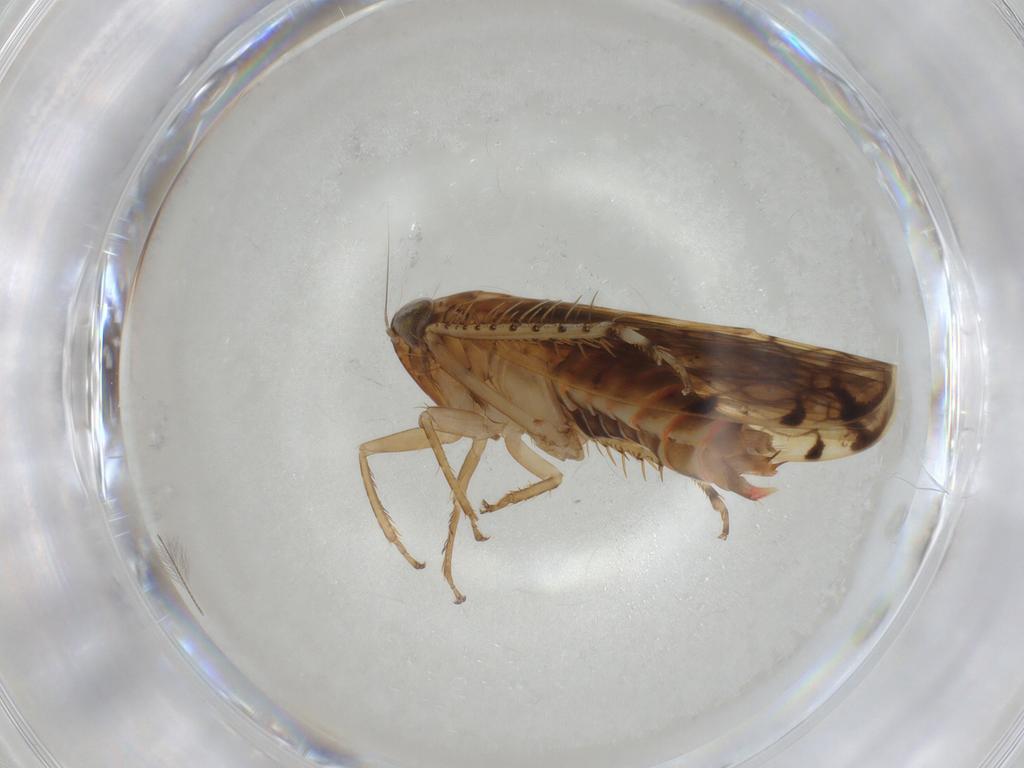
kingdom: Animalia
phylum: Arthropoda
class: Insecta
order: Hemiptera
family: Cicadellidae
